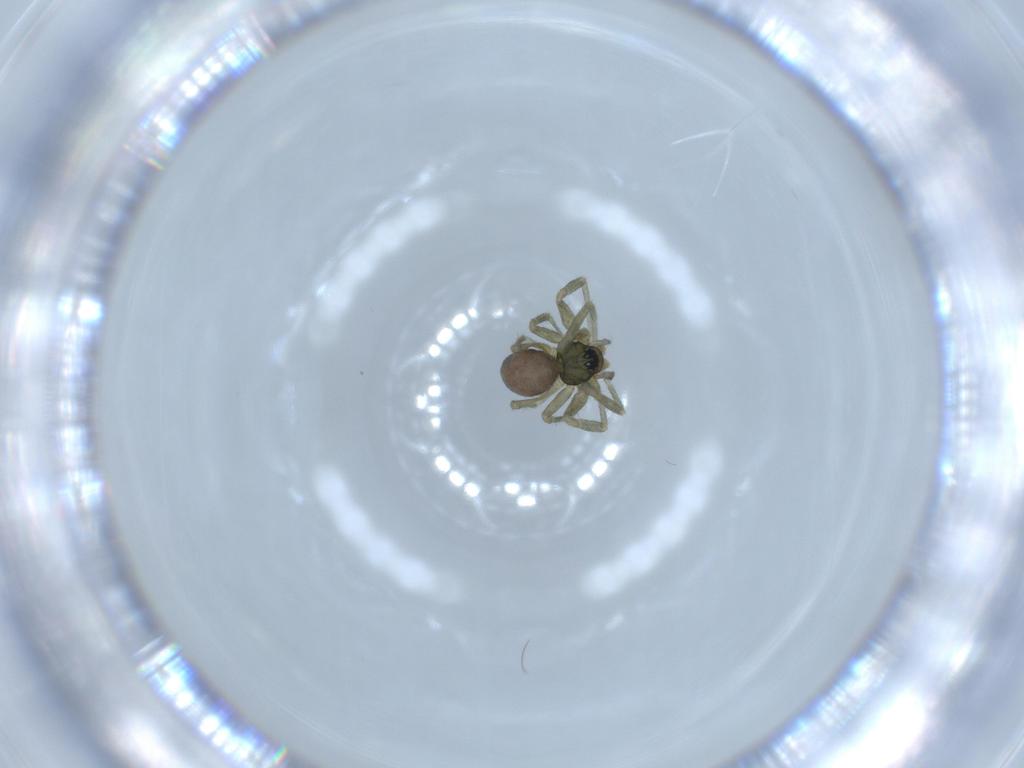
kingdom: Animalia
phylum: Arthropoda
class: Arachnida
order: Araneae
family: Linyphiidae
